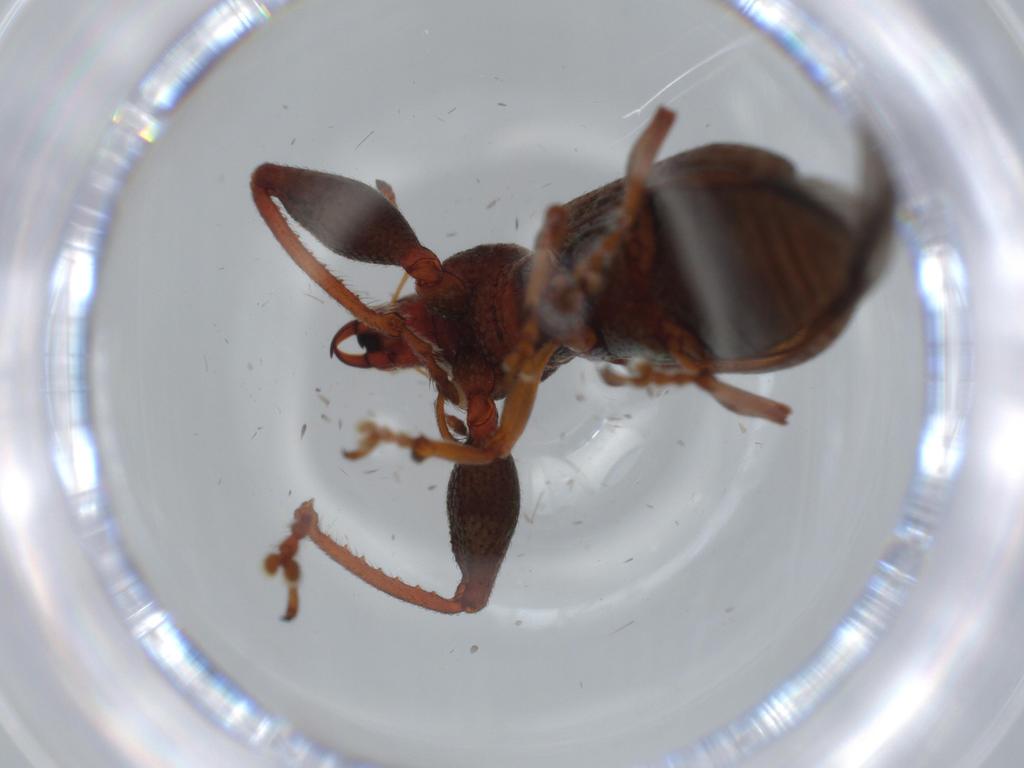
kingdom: Animalia
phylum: Arthropoda
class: Insecta
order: Coleoptera
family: Curculionidae
